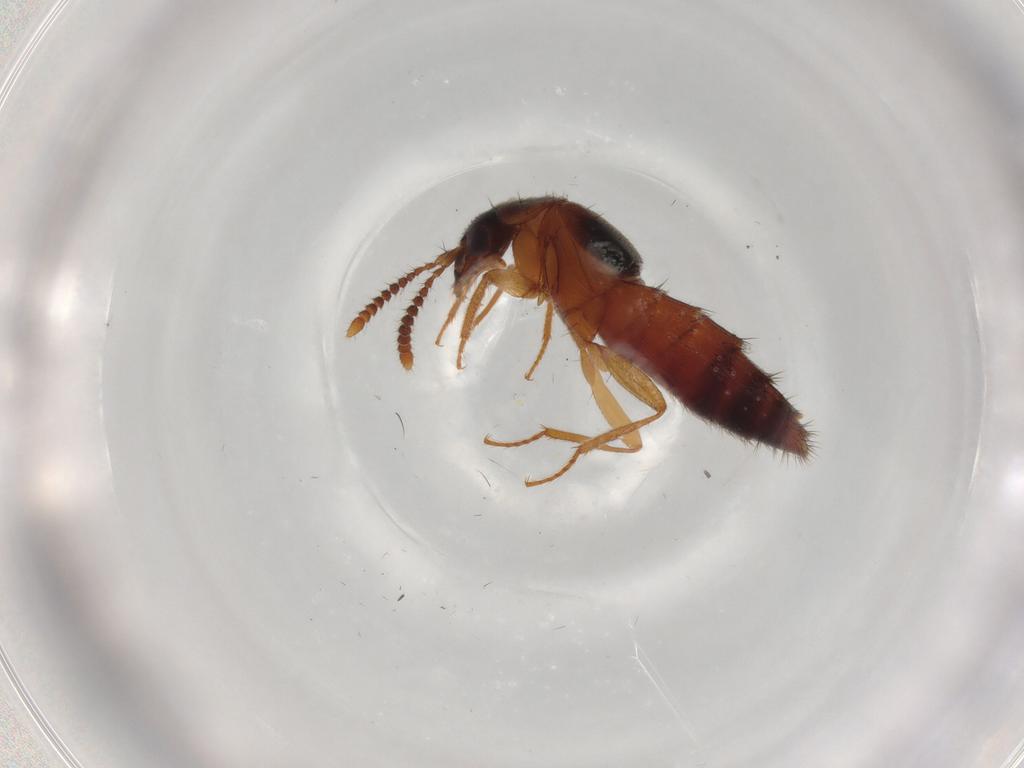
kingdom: Animalia
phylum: Arthropoda
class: Insecta
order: Coleoptera
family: Staphylinidae
